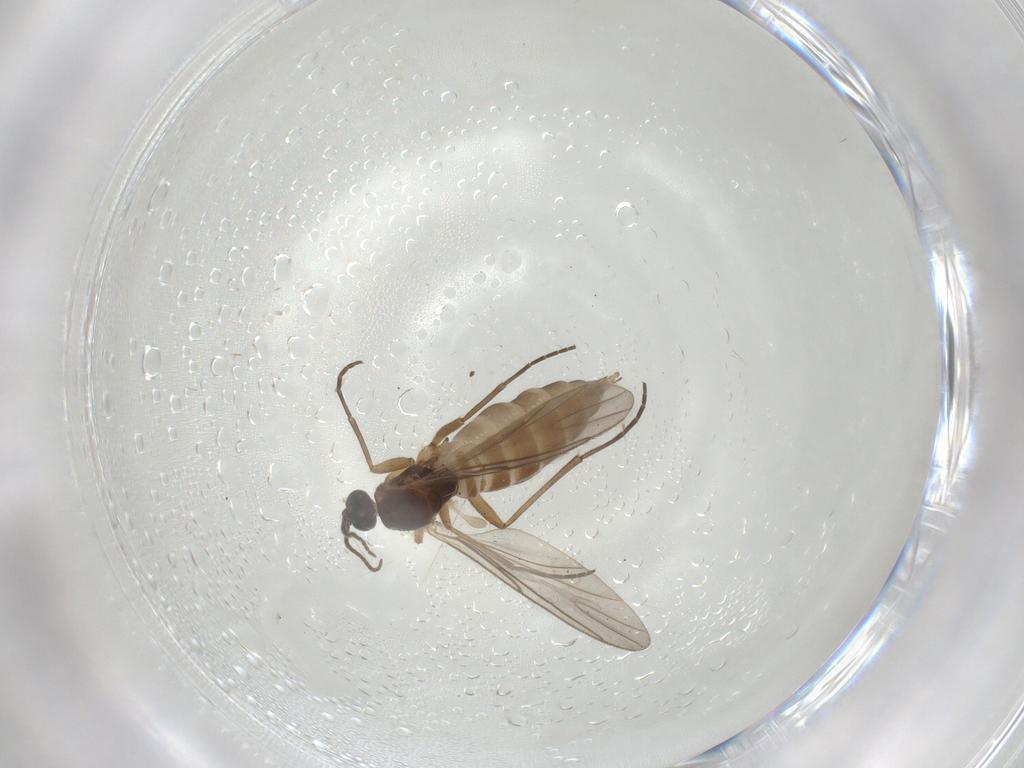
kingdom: Animalia
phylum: Arthropoda
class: Insecta
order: Diptera
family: Sciaridae
